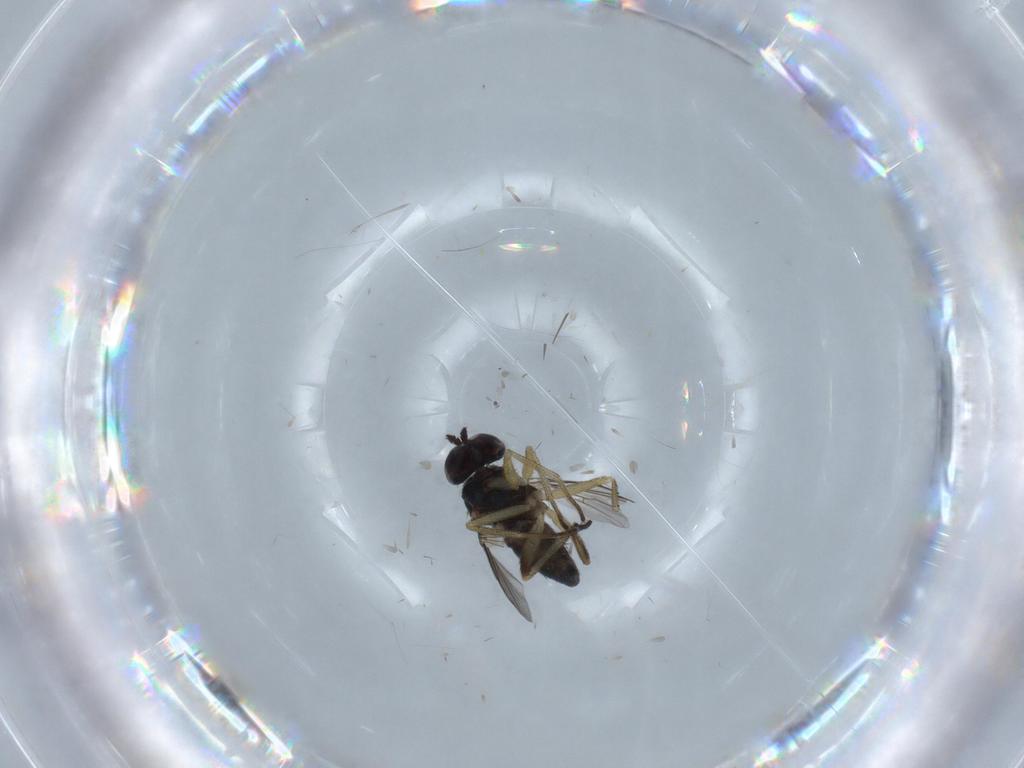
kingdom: Animalia
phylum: Arthropoda
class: Insecta
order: Diptera
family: Dolichopodidae
